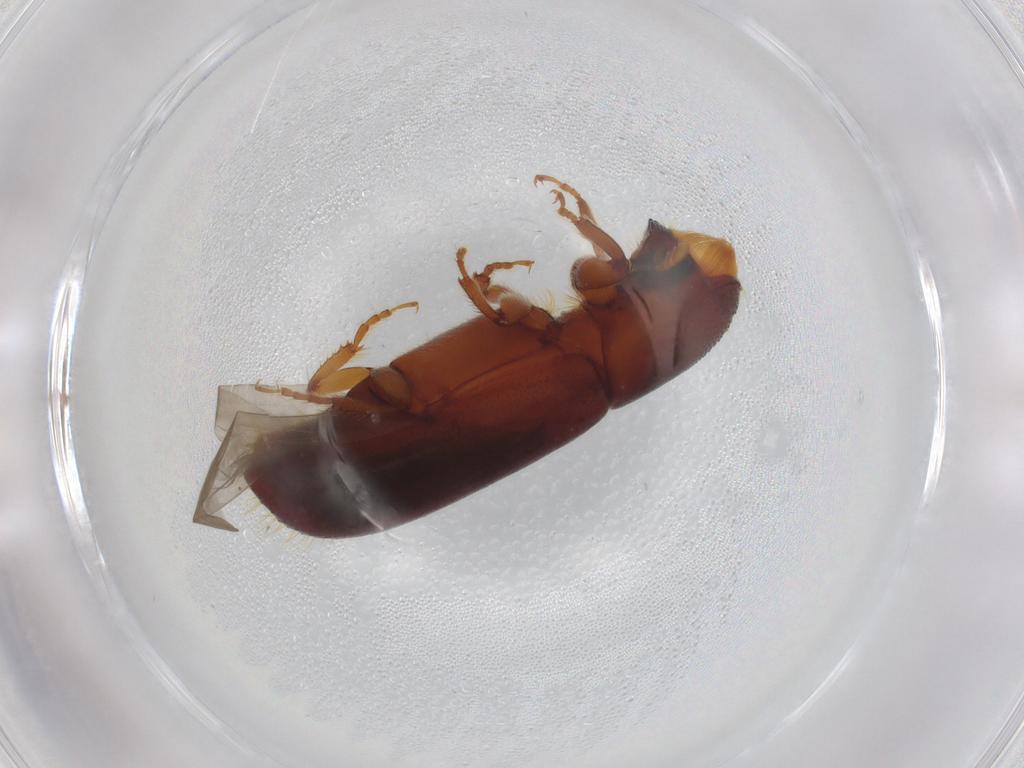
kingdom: Animalia
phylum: Arthropoda
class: Insecta
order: Coleoptera
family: Curculionidae
